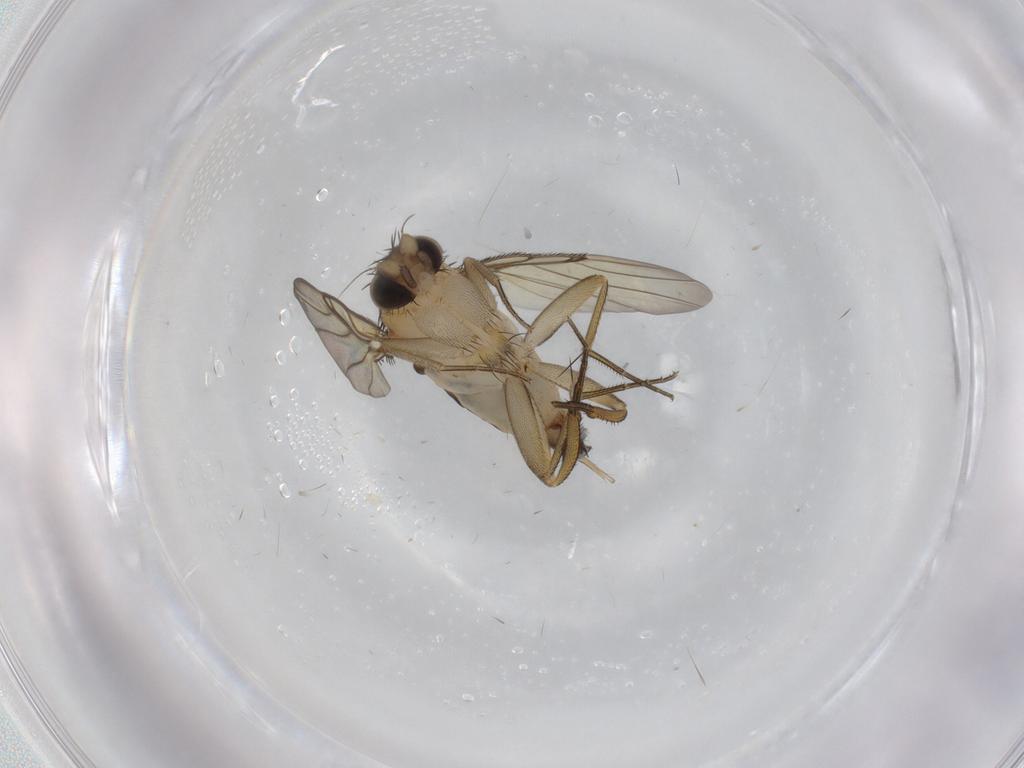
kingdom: Animalia
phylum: Arthropoda
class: Insecta
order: Diptera
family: Phoridae
